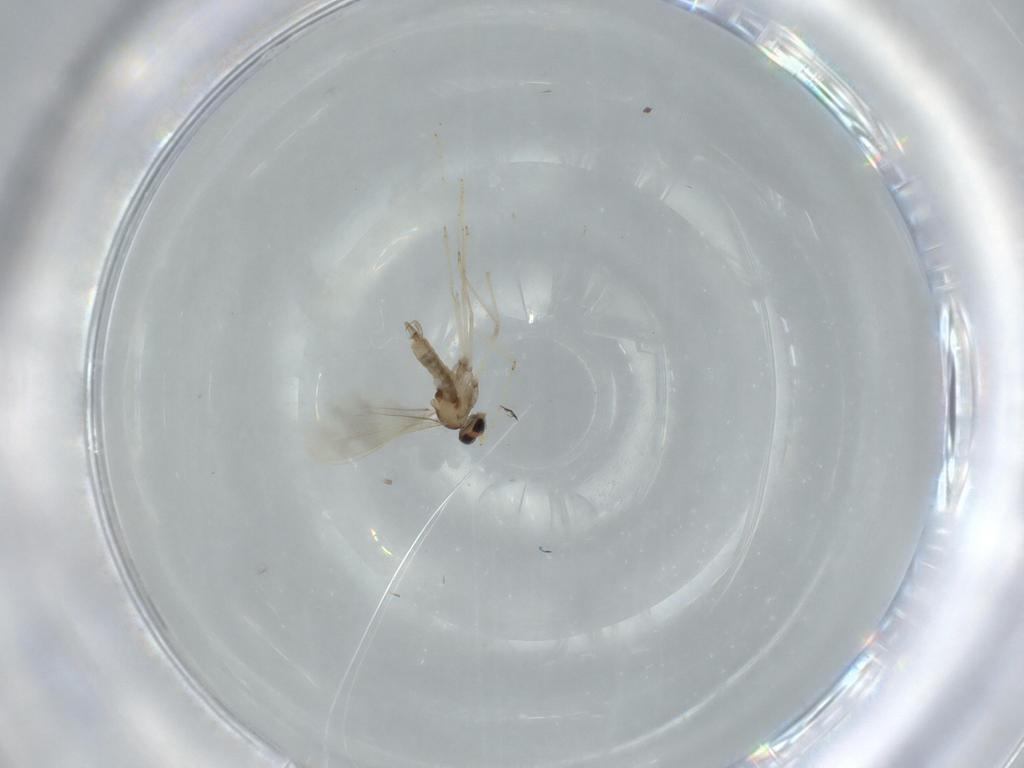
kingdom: Animalia
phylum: Arthropoda
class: Insecta
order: Diptera
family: Cecidomyiidae
